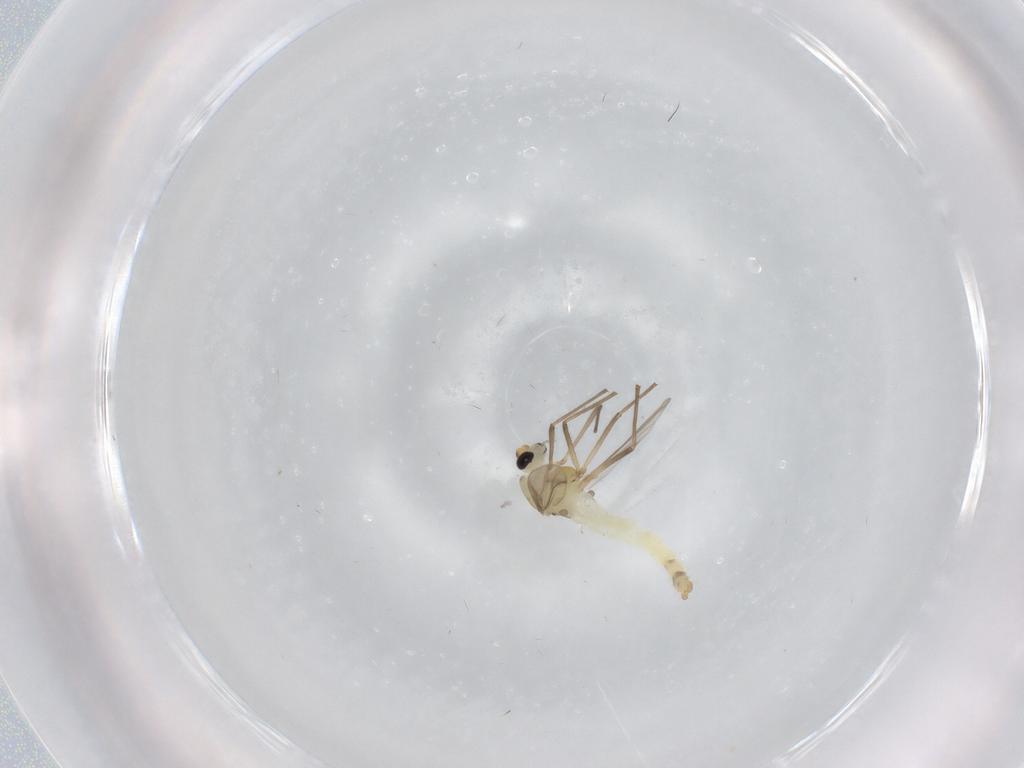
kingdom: Animalia
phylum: Arthropoda
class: Insecta
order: Diptera
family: Chironomidae
